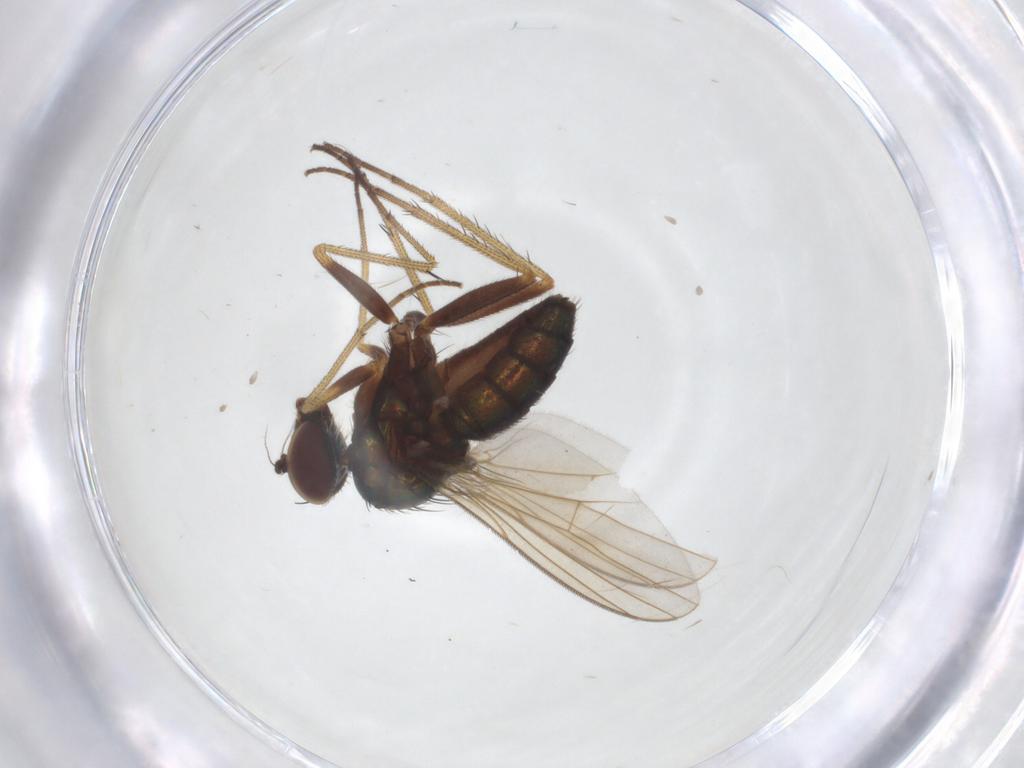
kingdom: Animalia
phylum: Arthropoda
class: Insecta
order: Diptera
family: Dolichopodidae
